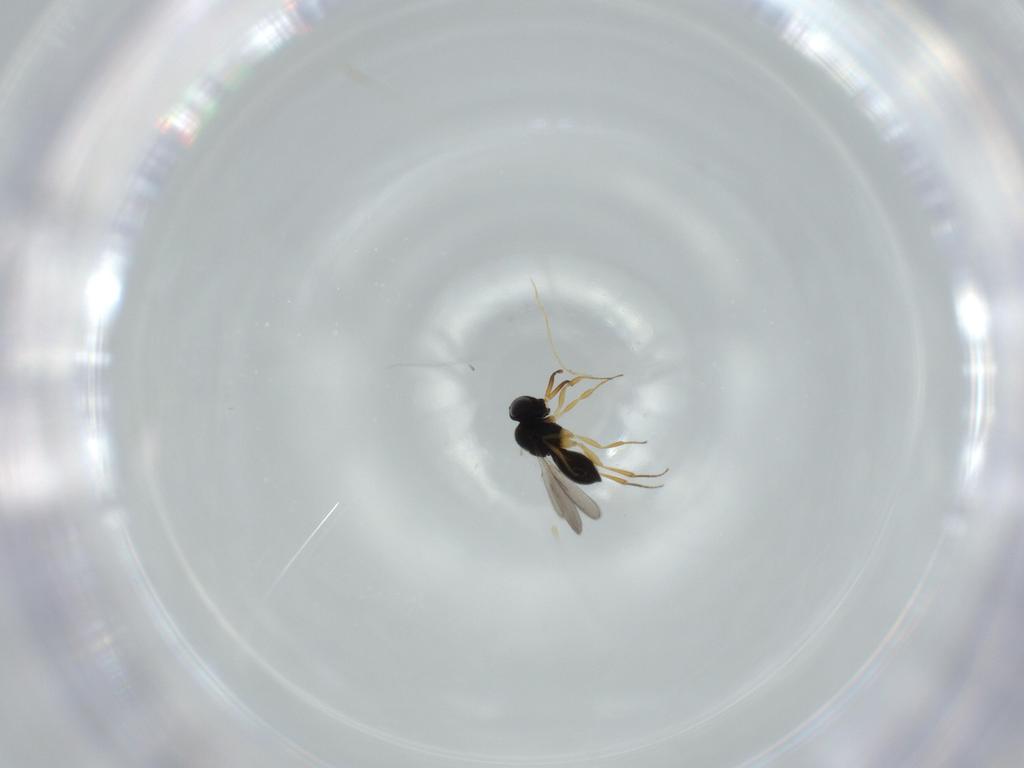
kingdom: Animalia
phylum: Arthropoda
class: Insecta
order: Hymenoptera
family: Scelionidae
